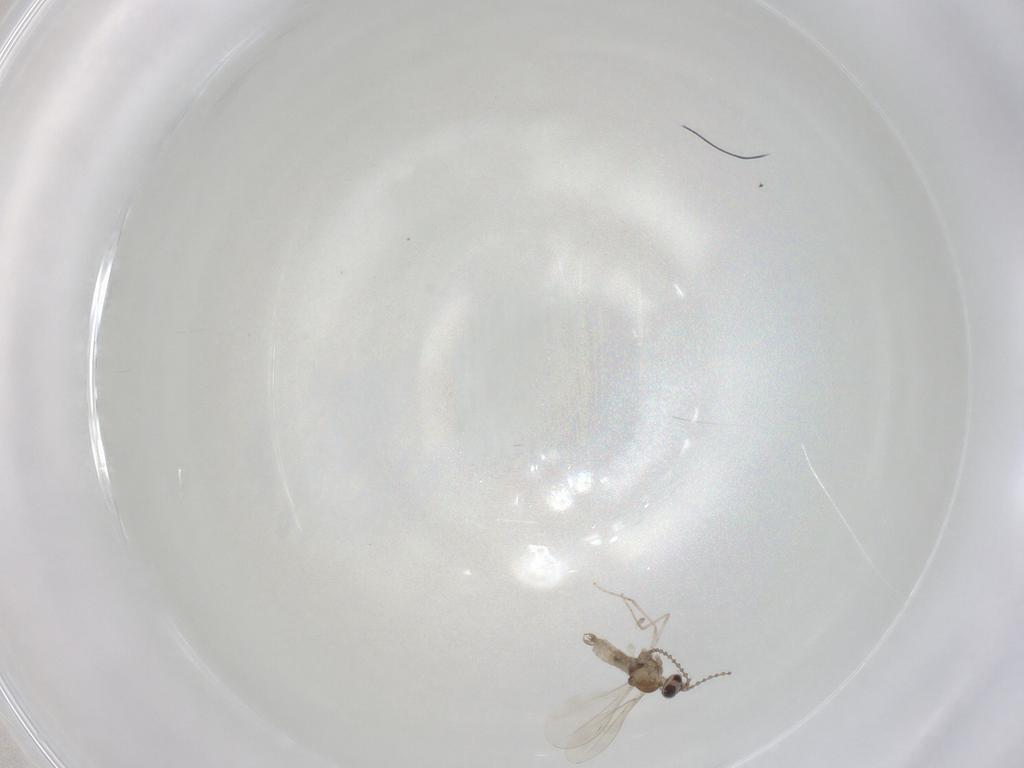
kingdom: Animalia
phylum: Arthropoda
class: Insecta
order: Diptera
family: Cecidomyiidae
